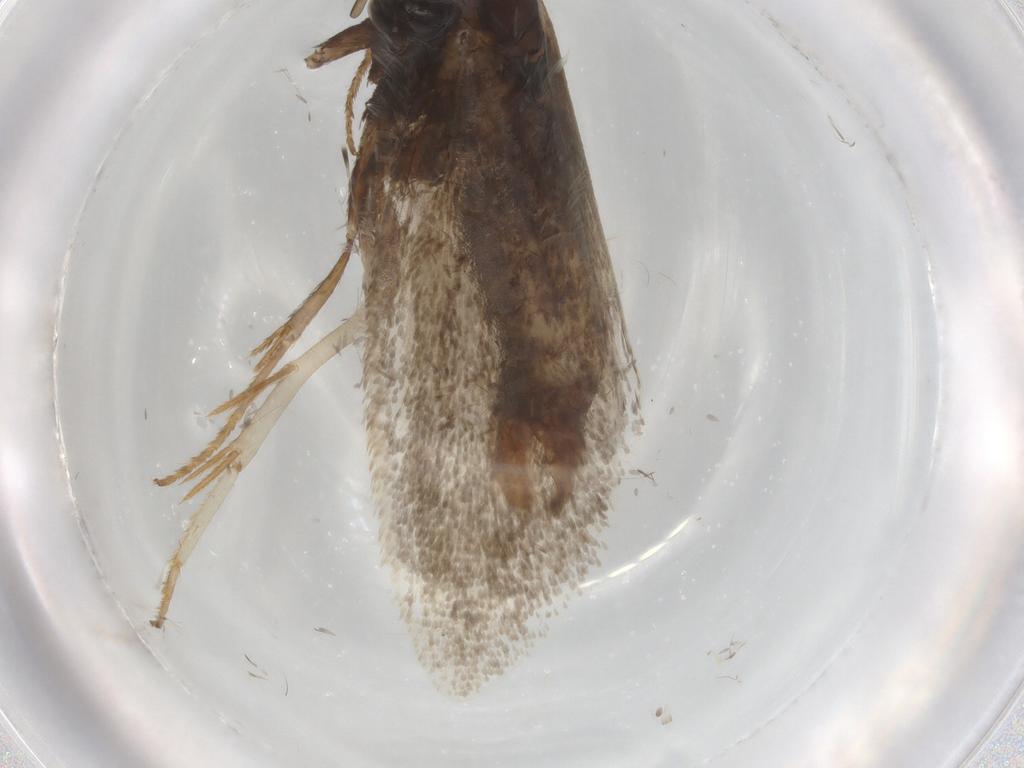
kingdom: Animalia
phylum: Arthropoda
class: Insecta
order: Lepidoptera
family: Crambidae
